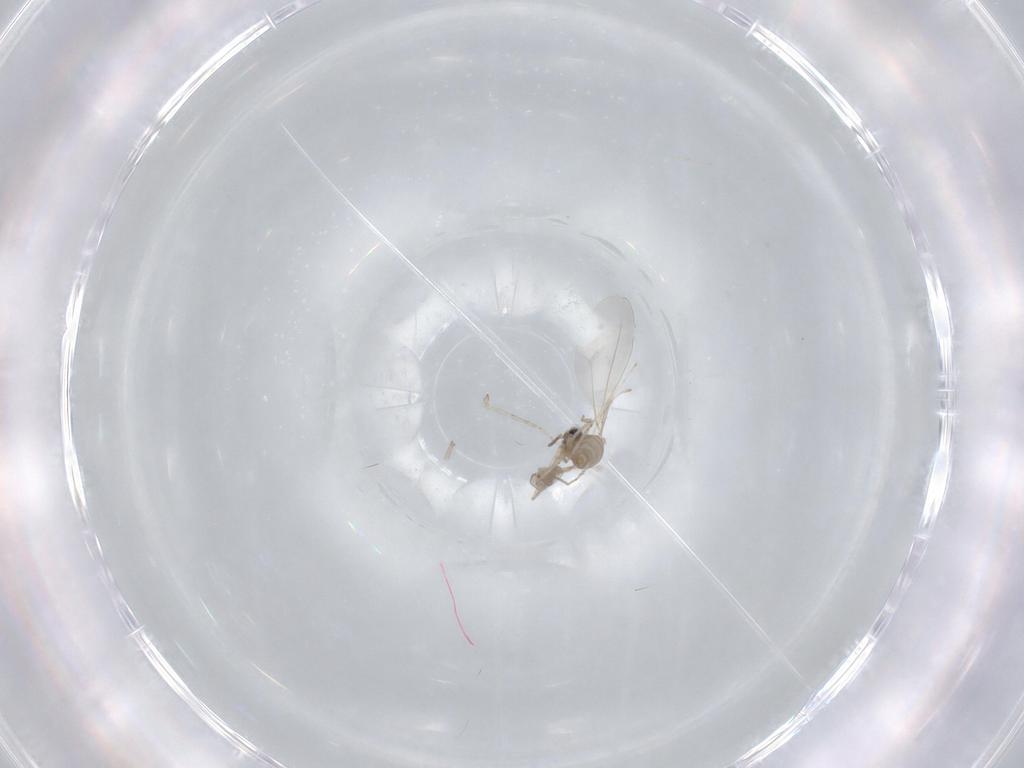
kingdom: Animalia
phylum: Arthropoda
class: Insecta
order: Diptera
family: Cecidomyiidae
